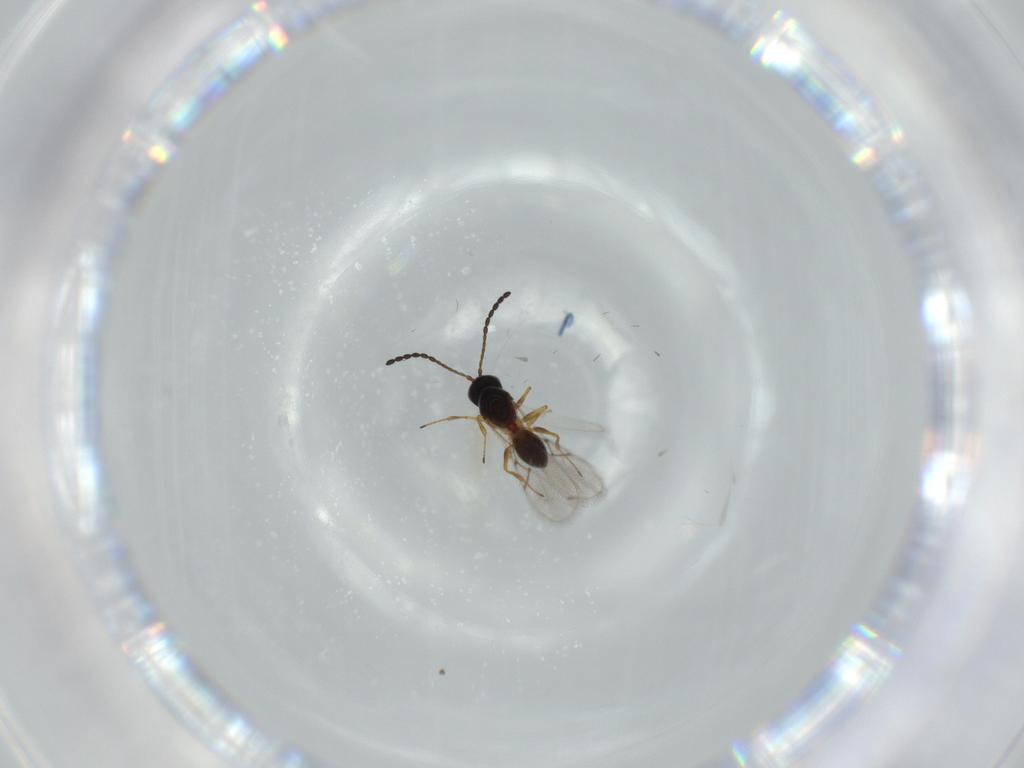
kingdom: Animalia
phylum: Arthropoda
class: Insecta
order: Hymenoptera
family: Figitidae
